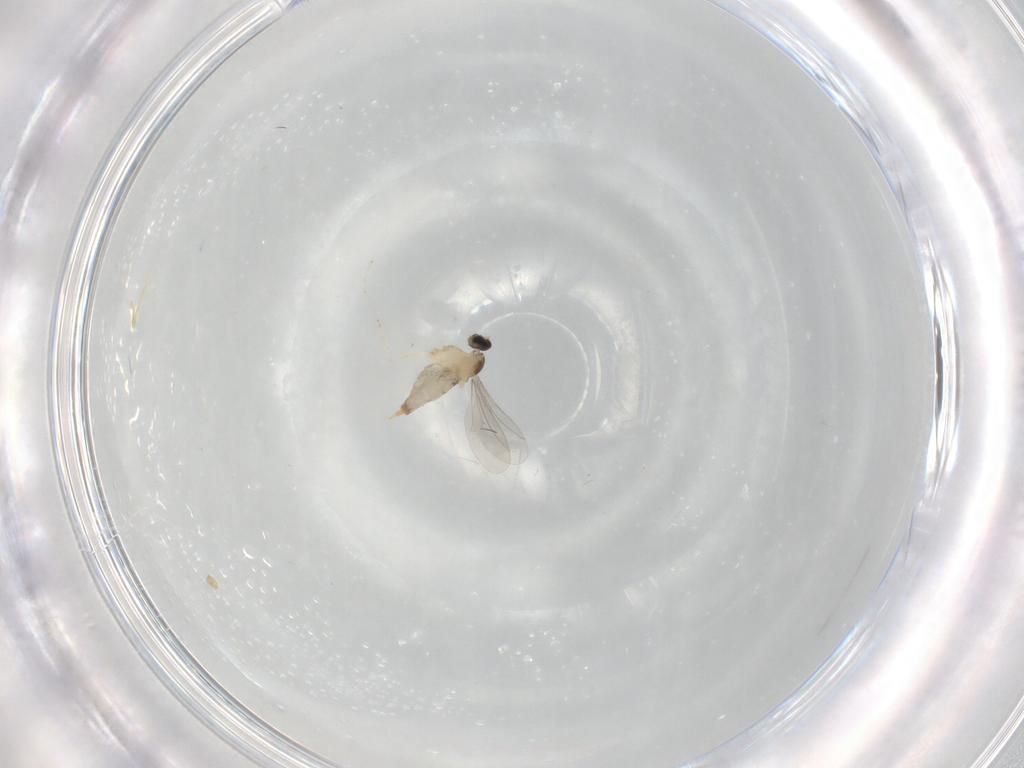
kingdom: Animalia
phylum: Arthropoda
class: Insecta
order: Diptera
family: Cecidomyiidae
